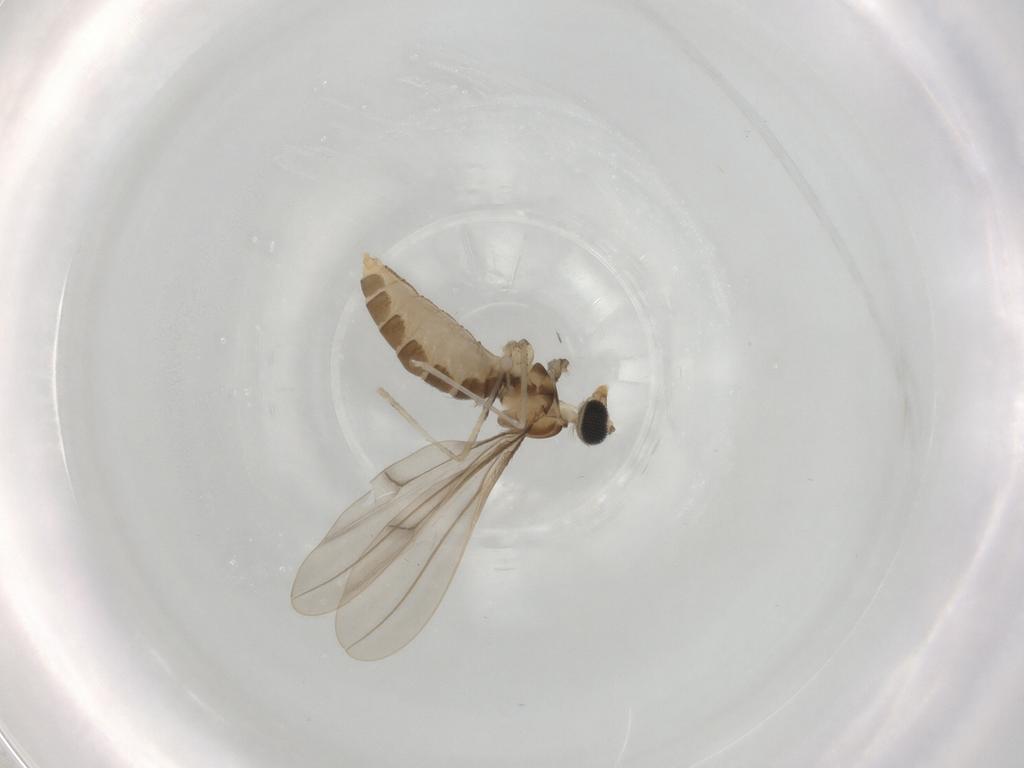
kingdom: Animalia
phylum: Arthropoda
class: Insecta
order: Diptera
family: Cecidomyiidae
